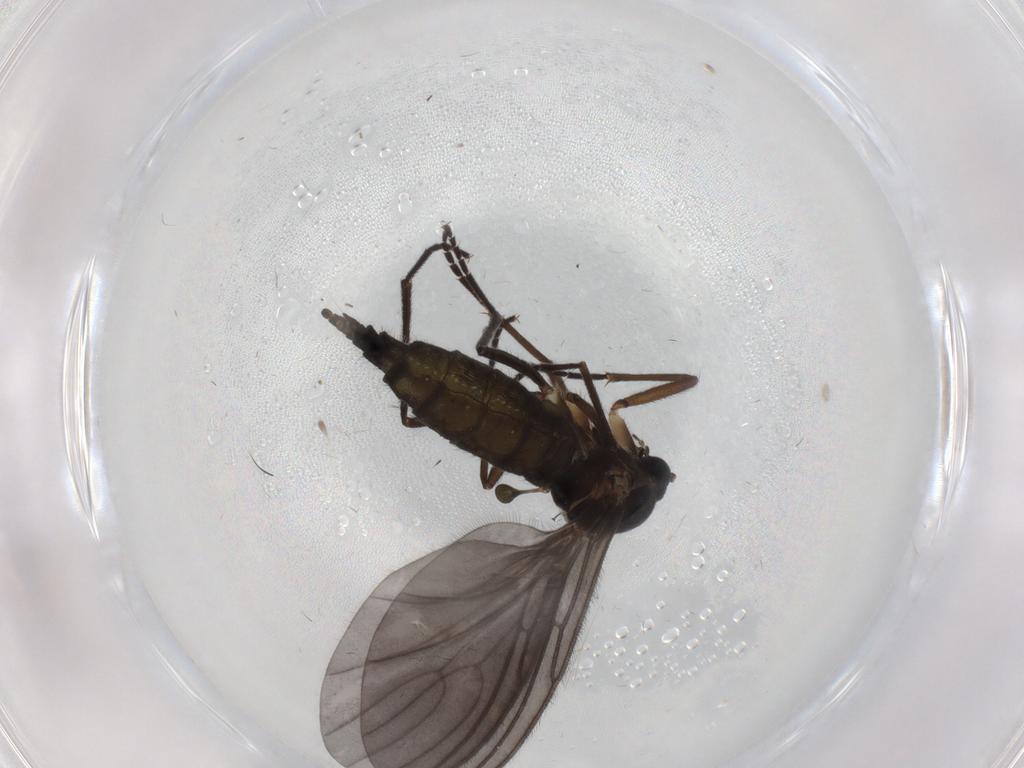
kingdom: Animalia
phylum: Arthropoda
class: Insecta
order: Diptera
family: Sciaridae
